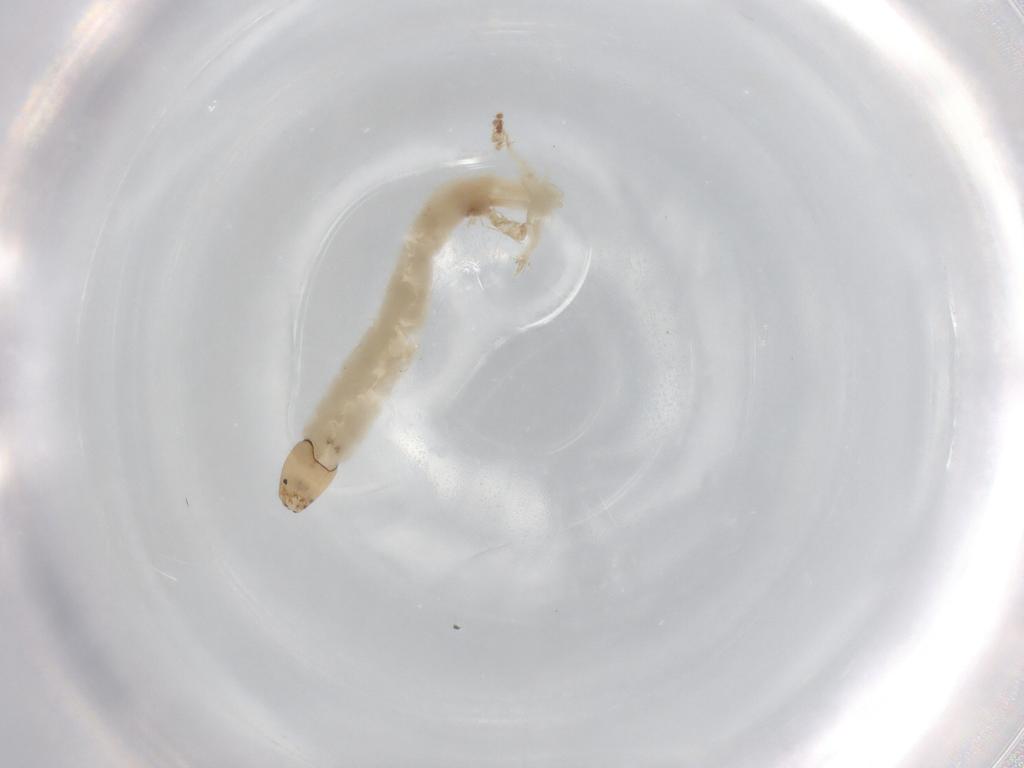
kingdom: Animalia
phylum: Arthropoda
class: Insecta
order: Diptera
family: Chironomidae
